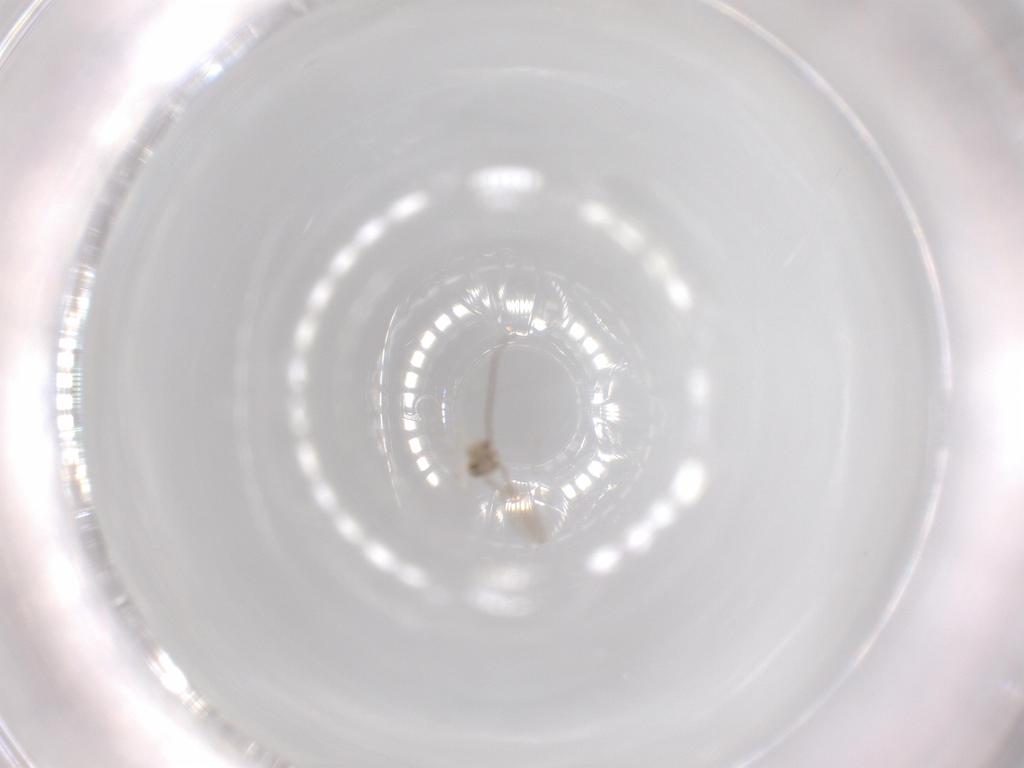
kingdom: Animalia
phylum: Arthropoda
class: Insecta
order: Diptera
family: Cecidomyiidae
